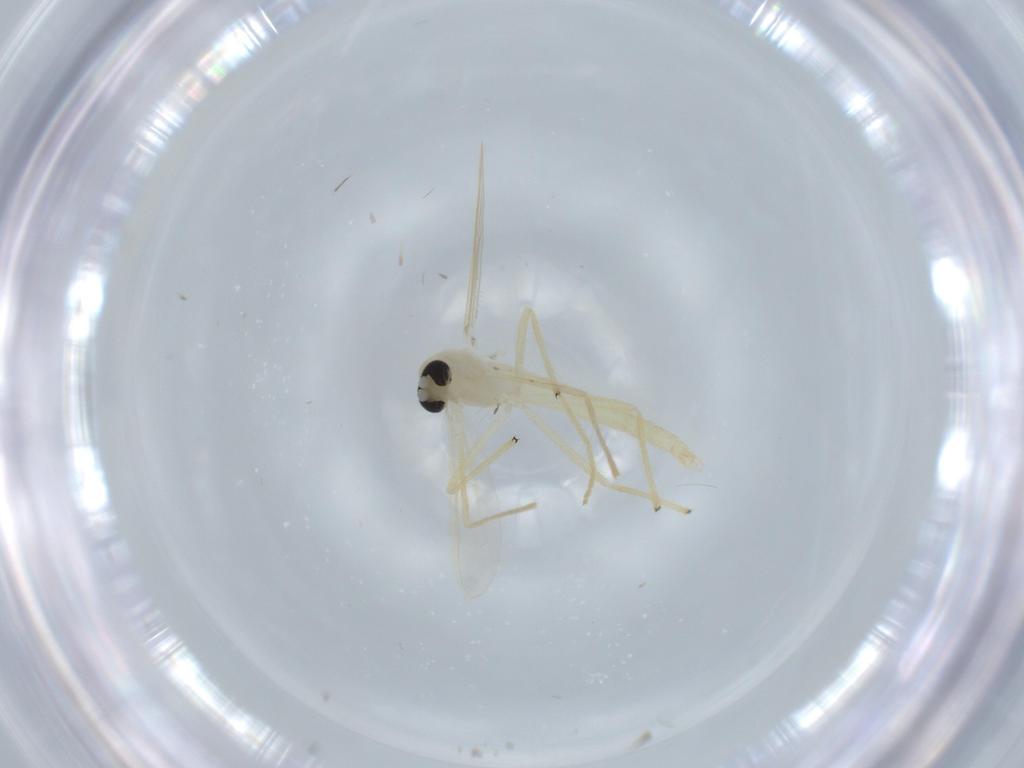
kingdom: Animalia
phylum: Arthropoda
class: Insecta
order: Diptera
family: Chironomidae
